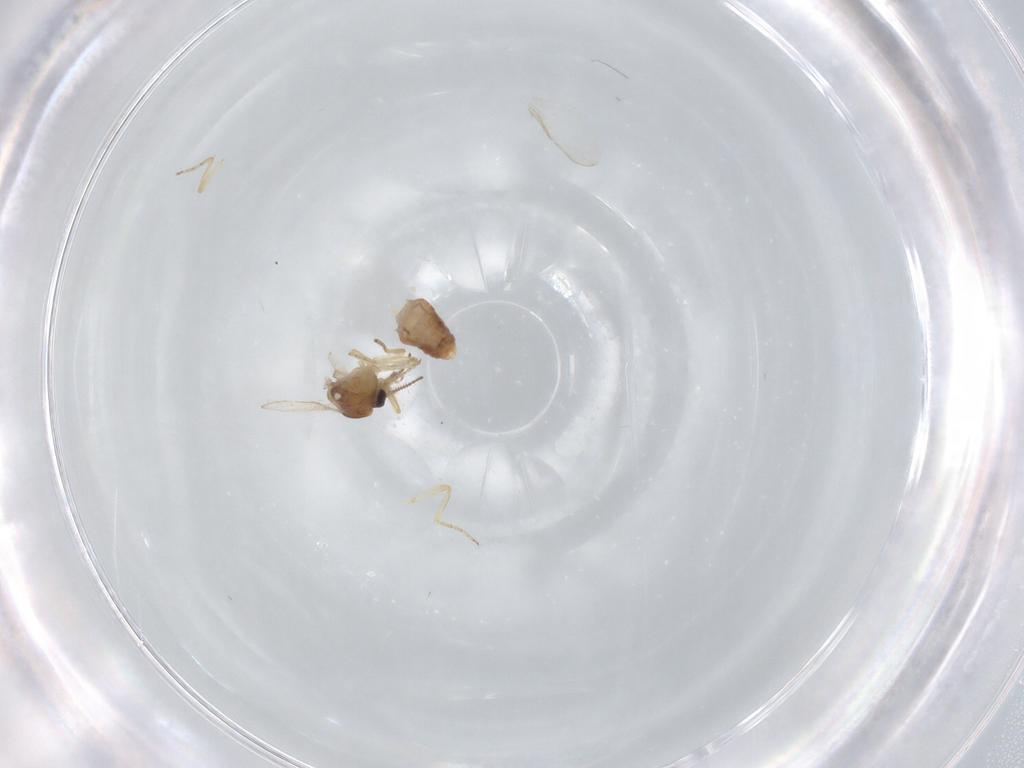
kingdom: Animalia
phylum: Arthropoda
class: Insecta
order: Diptera
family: Ceratopogonidae
